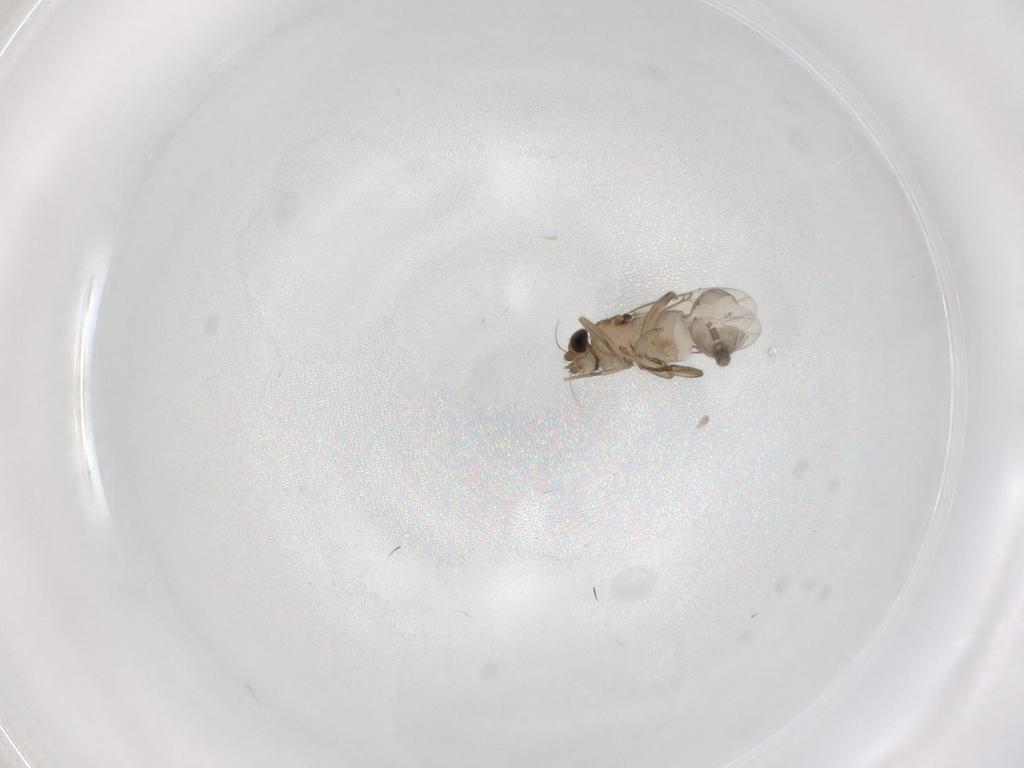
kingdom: Animalia
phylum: Arthropoda
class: Insecta
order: Diptera
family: Phoridae
